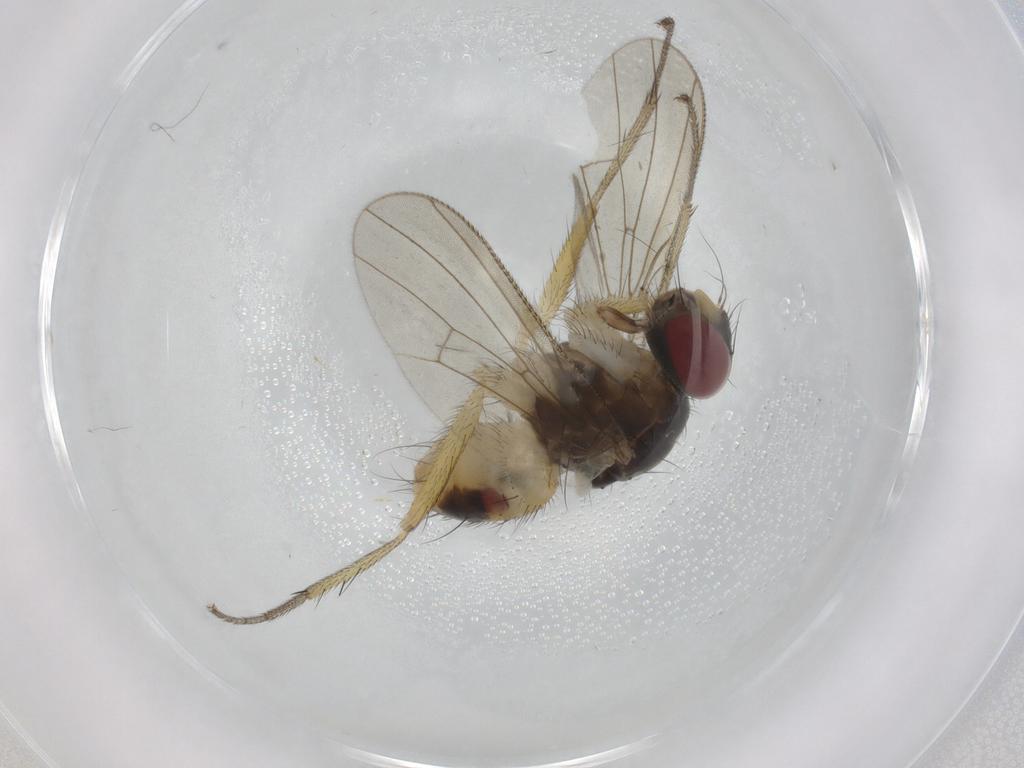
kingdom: Animalia
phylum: Arthropoda
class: Insecta
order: Diptera
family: Muscidae
